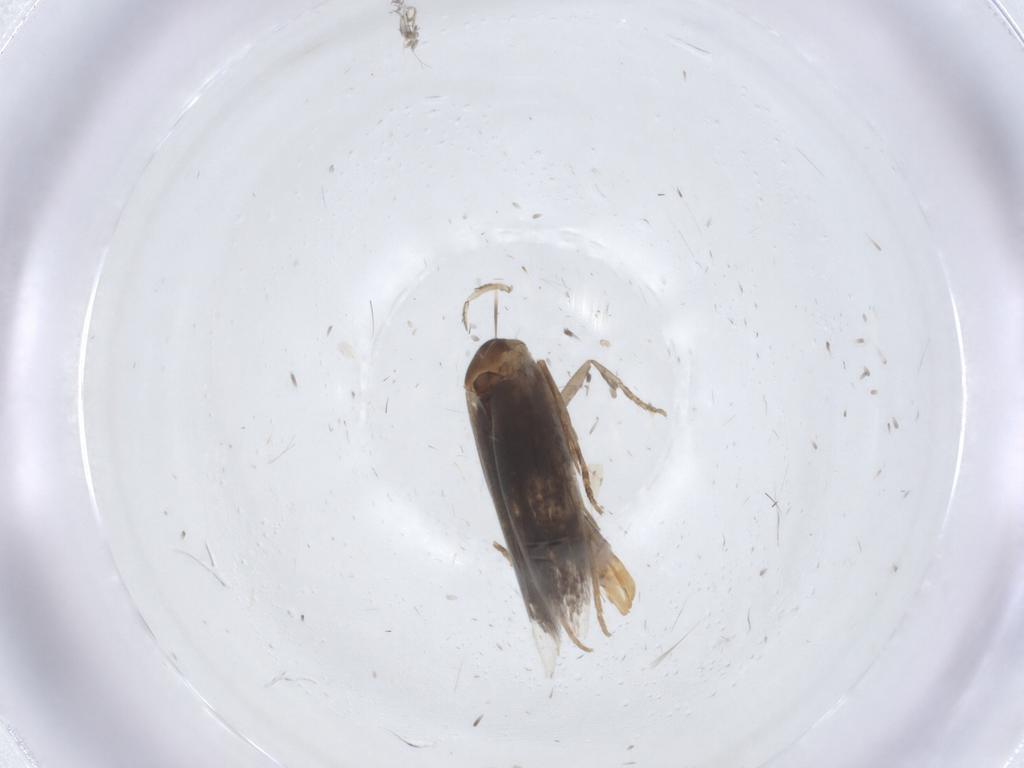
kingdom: Animalia
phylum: Arthropoda
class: Insecta
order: Lepidoptera
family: Elachistidae
